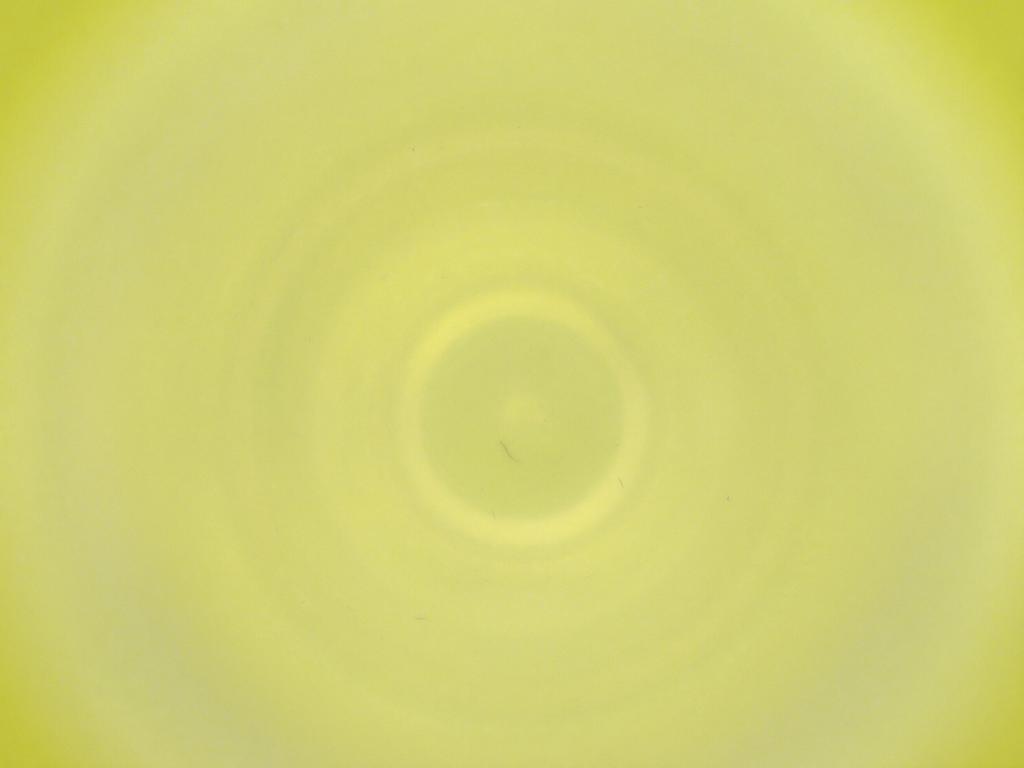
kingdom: Animalia
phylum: Arthropoda
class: Insecta
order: Diptera
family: Cecidomyiidae
